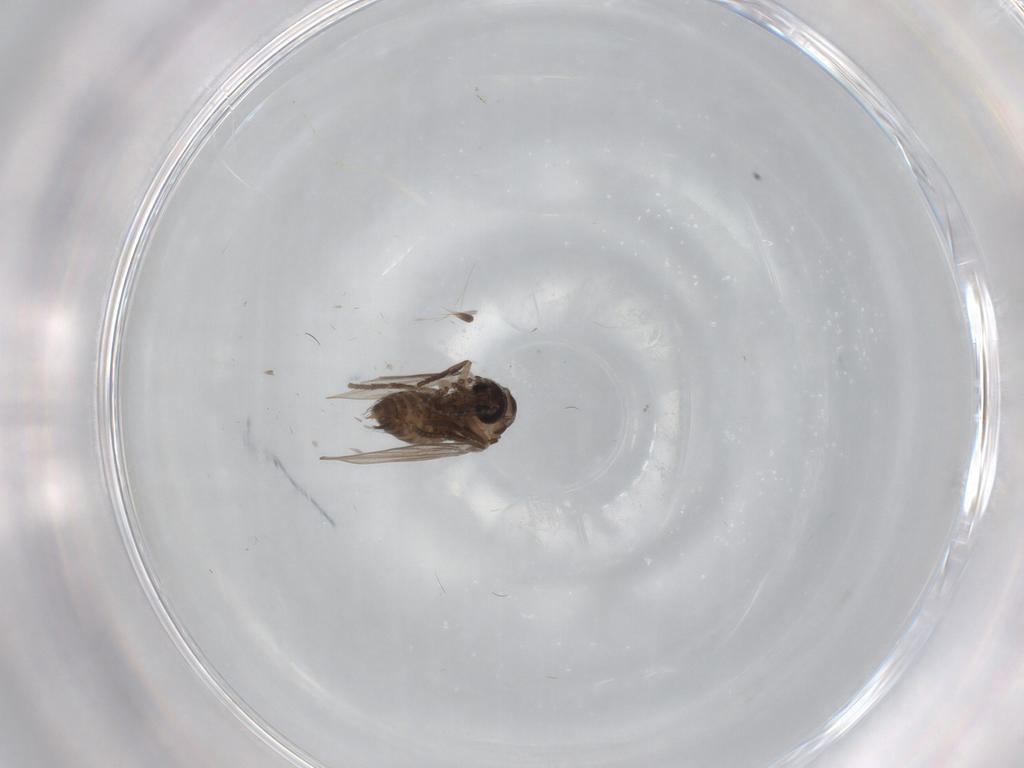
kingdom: Animalia
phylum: Arthropoda
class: Insecta
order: Diptera
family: Cecidomyiidae
